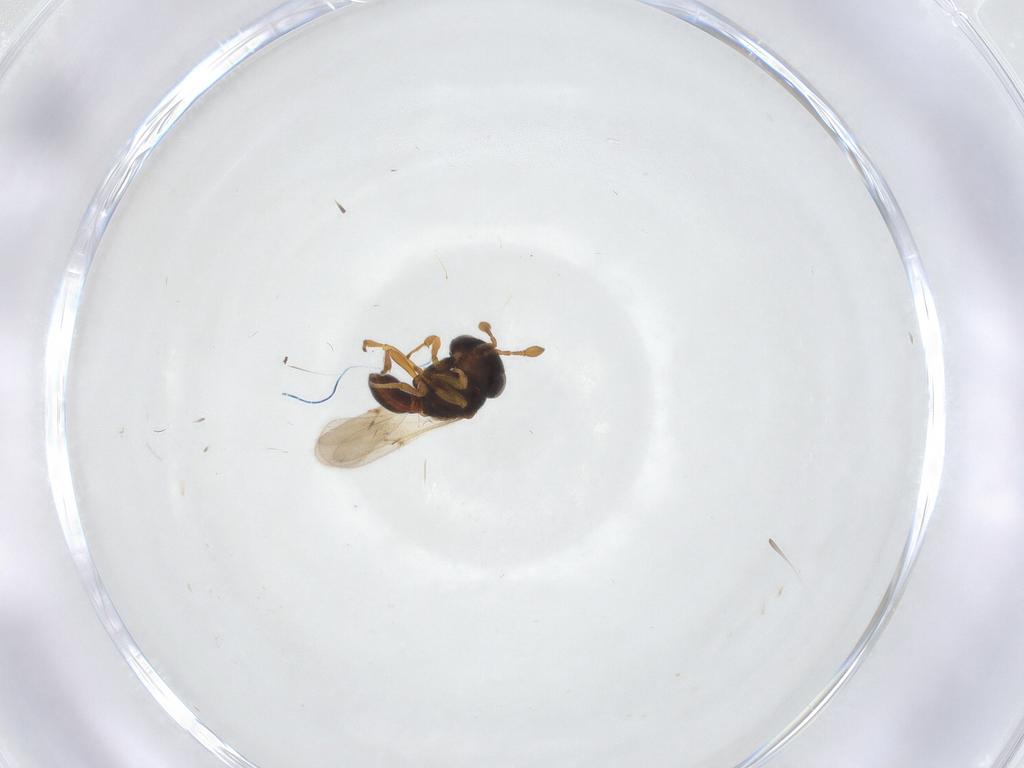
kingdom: Animalia
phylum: Arthropoda
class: Insecta
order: Hymenoptera
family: Scelionidae
